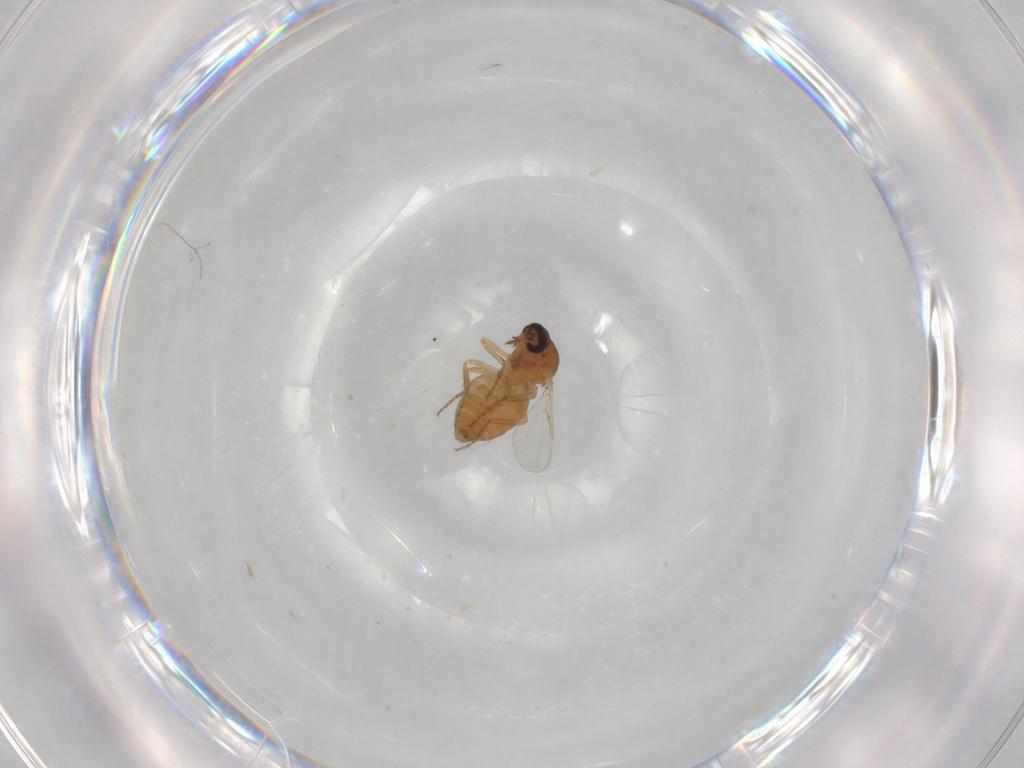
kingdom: Animalia
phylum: Arthropoda
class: Insecta
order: Diptera
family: Ceratopogonidae
